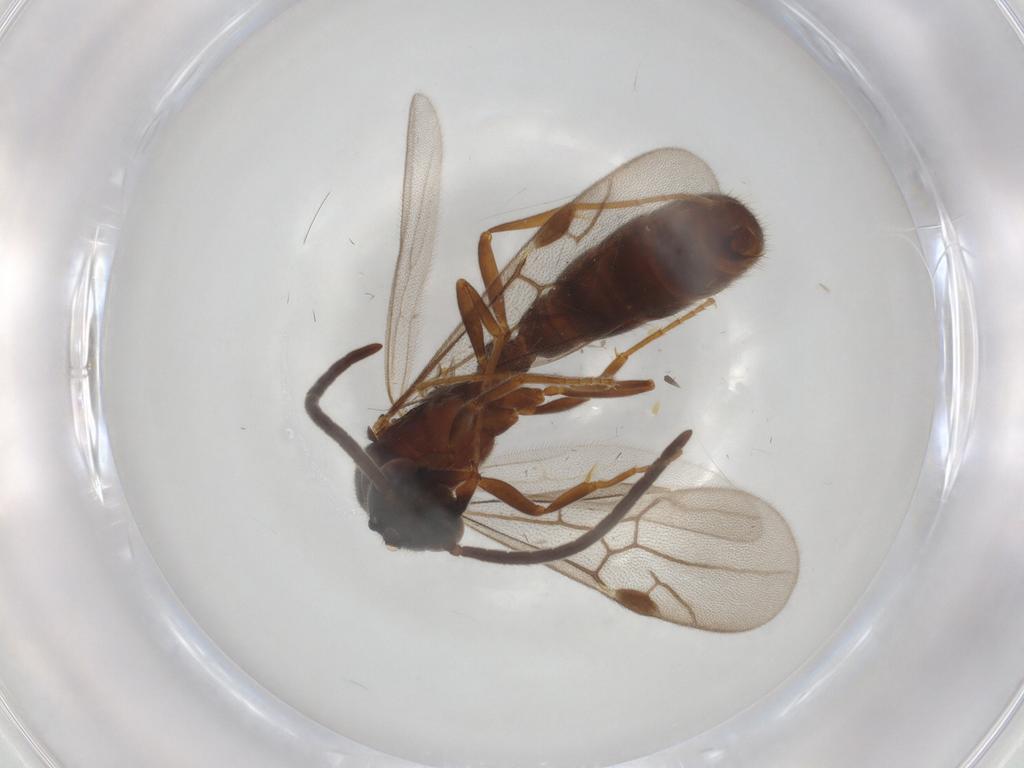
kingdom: Animalia
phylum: Arthropoda
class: Insecta
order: Hymenoptera
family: Formicidae
